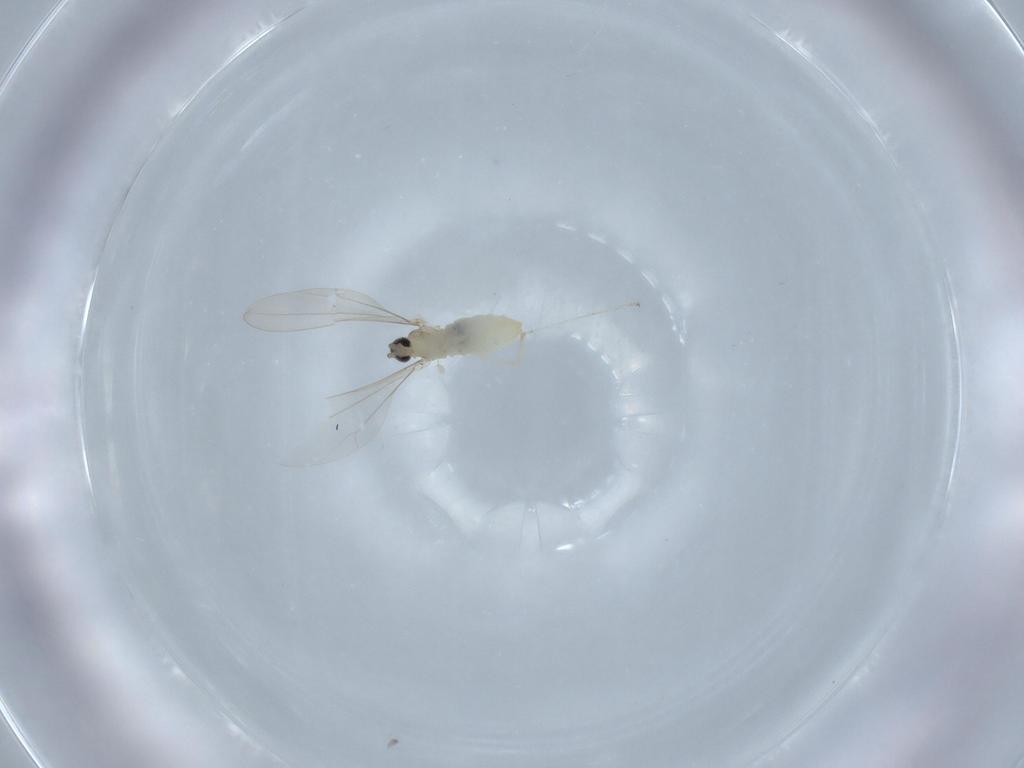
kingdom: Animalia
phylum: Arthropoda
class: Insecta
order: Diptera
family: Cecidomyiidae
